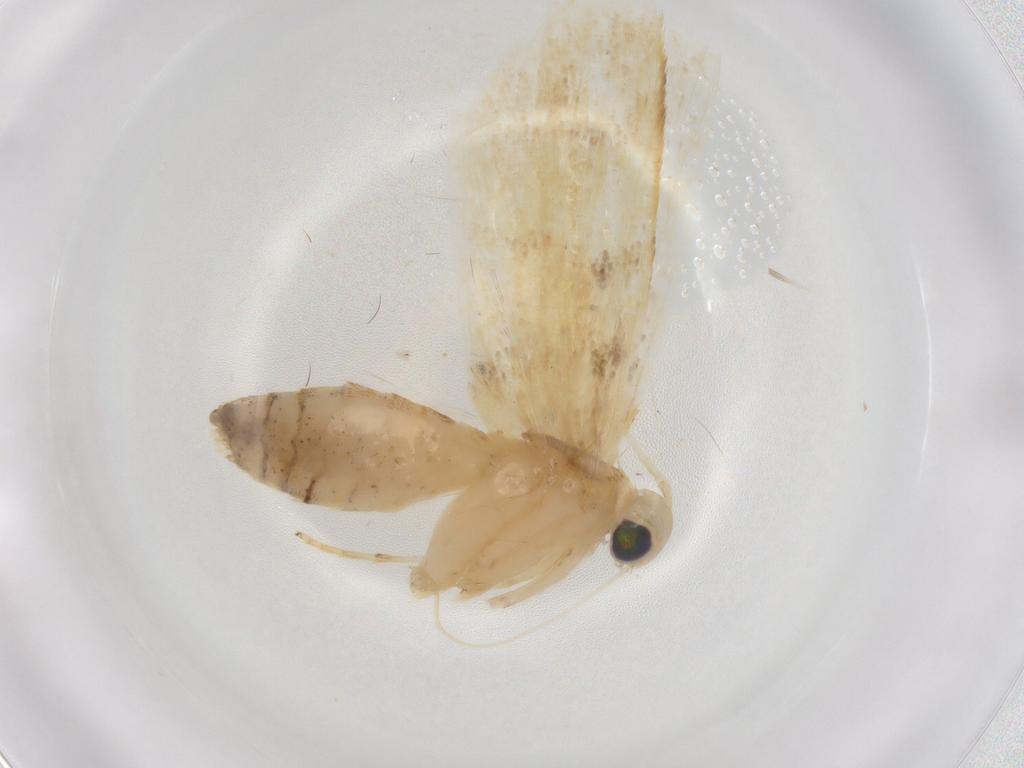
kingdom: Animalia
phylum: Arthropoda
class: Insecta
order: Lepidoptera
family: Lecithoceridae
